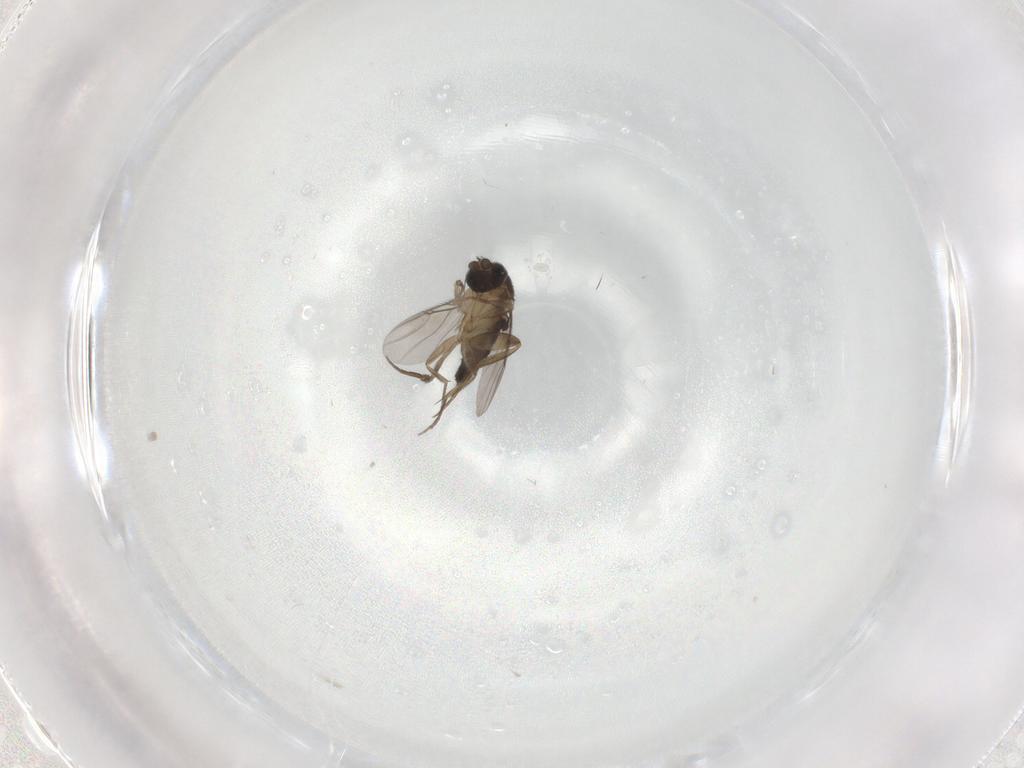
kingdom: Animalia
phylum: Arthropoda
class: Insecta
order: Diptera
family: Phoridae
